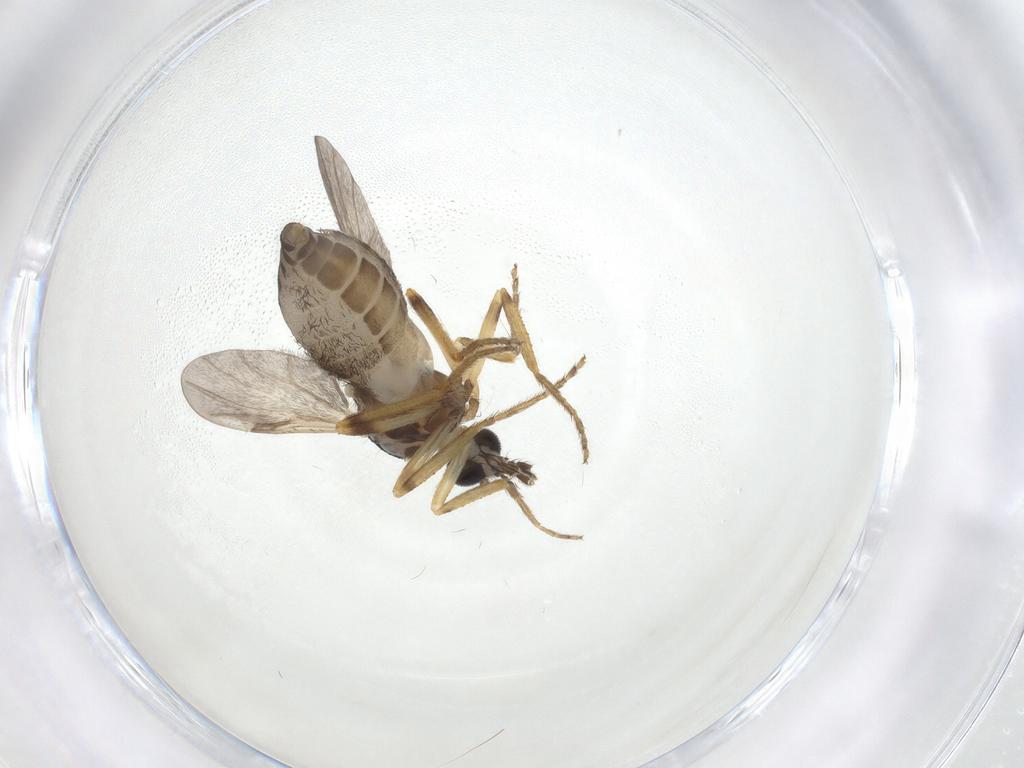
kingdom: Animalia
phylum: Arthropoda
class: Insecta
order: Diptera
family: Ceratopogonidae
